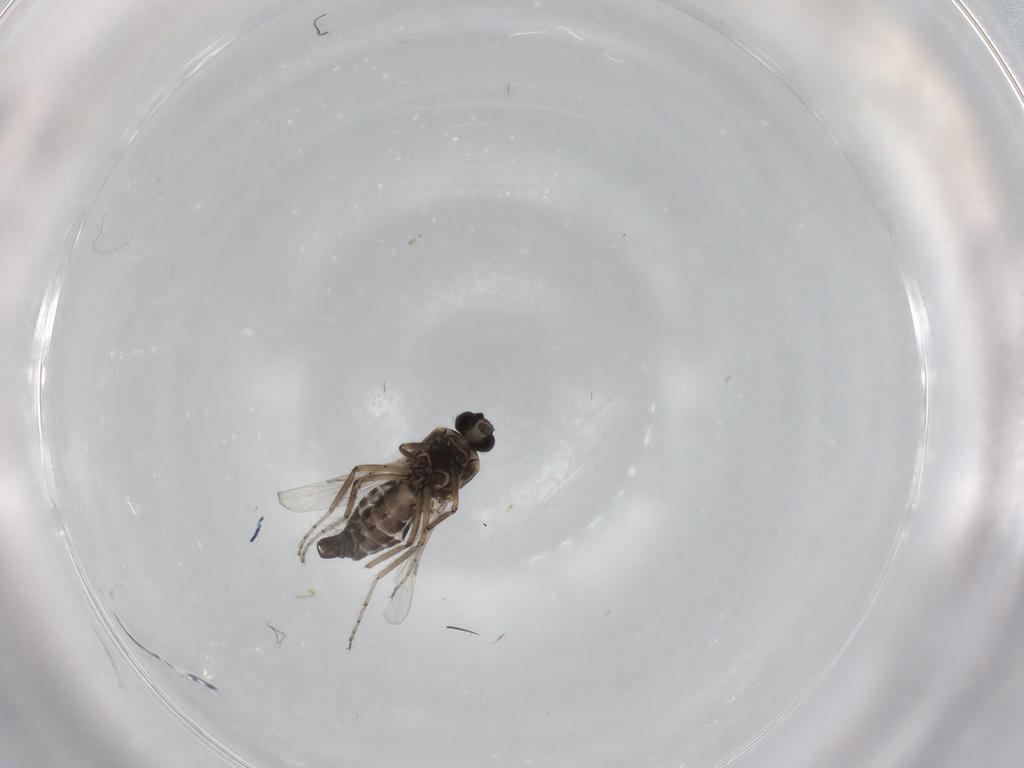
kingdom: Animalia
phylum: Arthropoda
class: Insecta
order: Diptera
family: Ceratopogonidae
